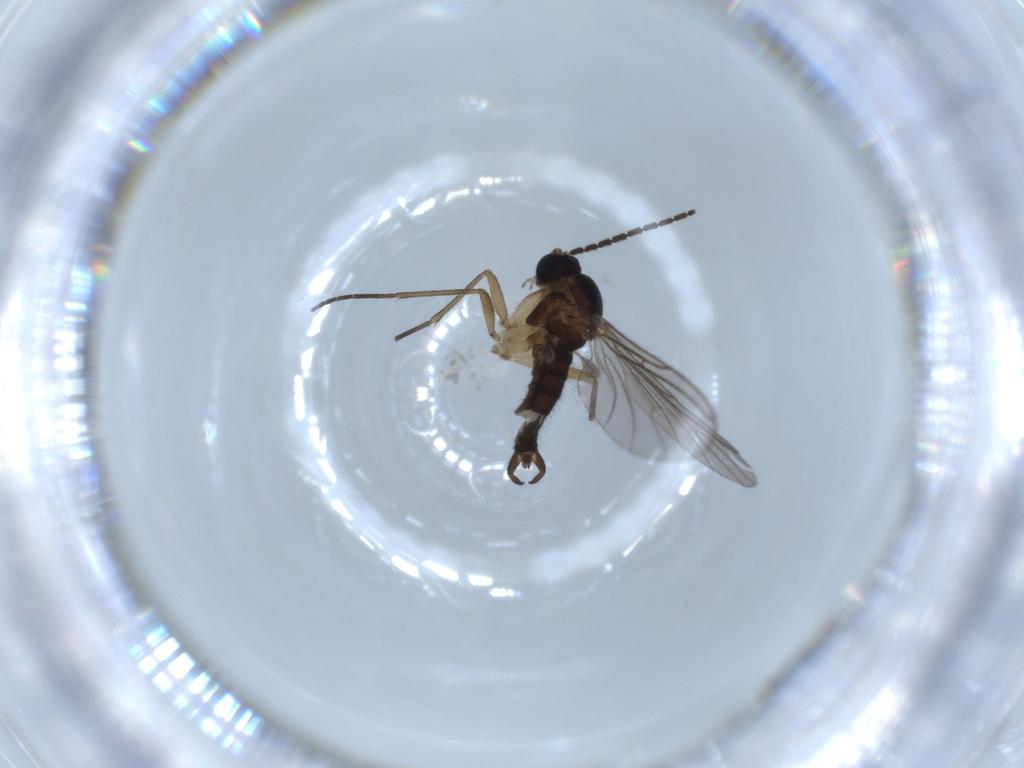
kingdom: Animalia
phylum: Arthropoda
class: Insecta
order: Diptera
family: Sciaridae
